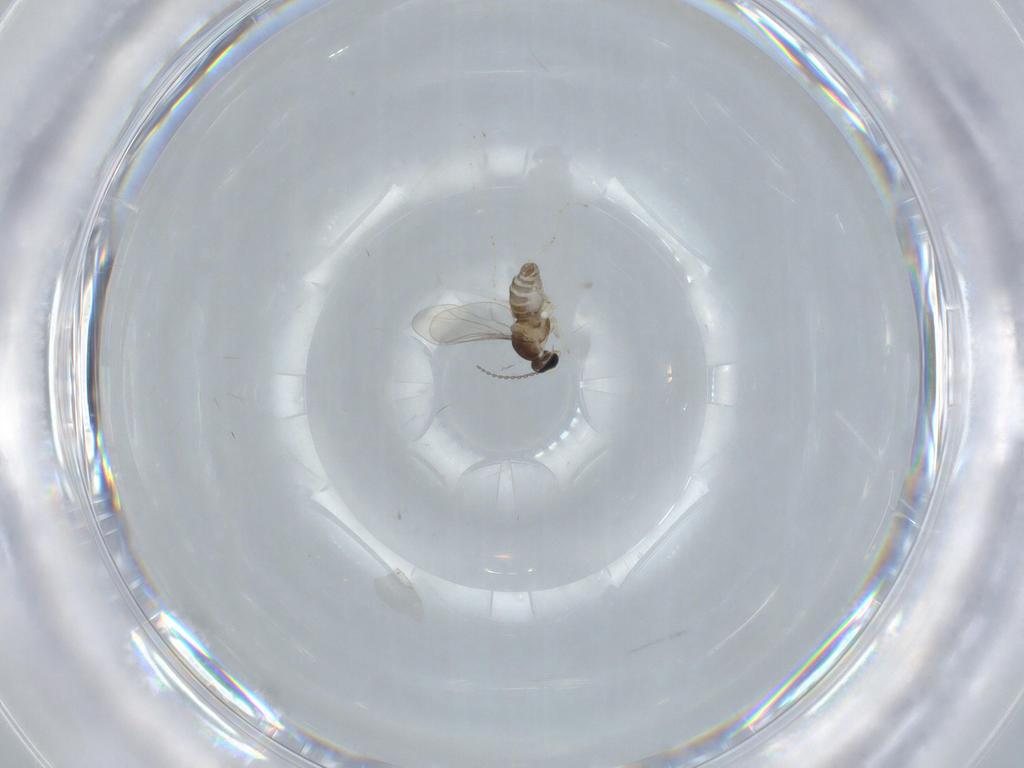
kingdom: Animalia
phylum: Arthropoda
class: Insecta
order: Diptera
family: Cecidomyiidae
